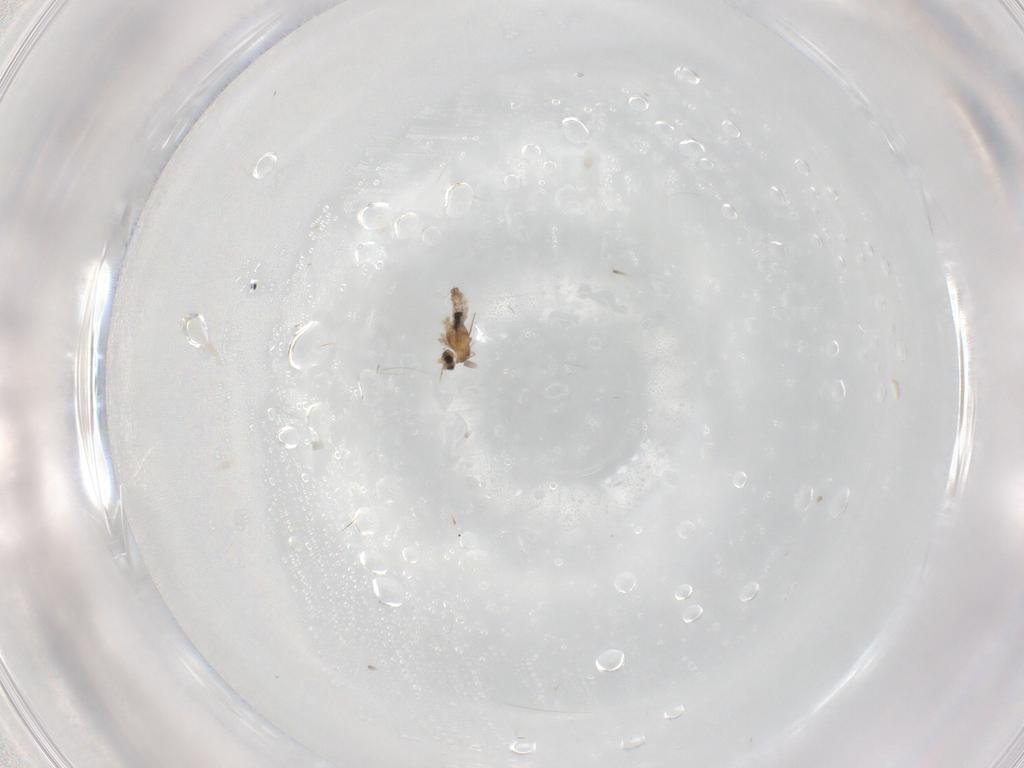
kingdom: Animalia
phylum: Arthropoda
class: Insecta
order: Diptera
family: Cecidomyiidae
